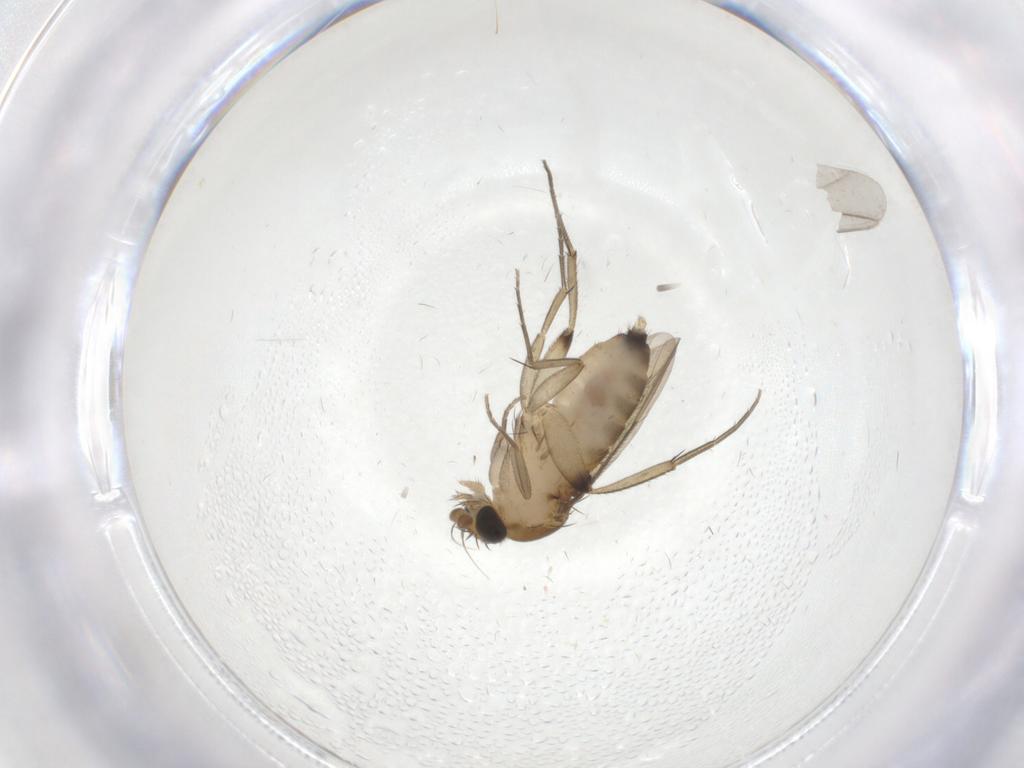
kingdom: Animalia
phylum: Arthropoda
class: Insecta
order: Diptera
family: Phoridae
